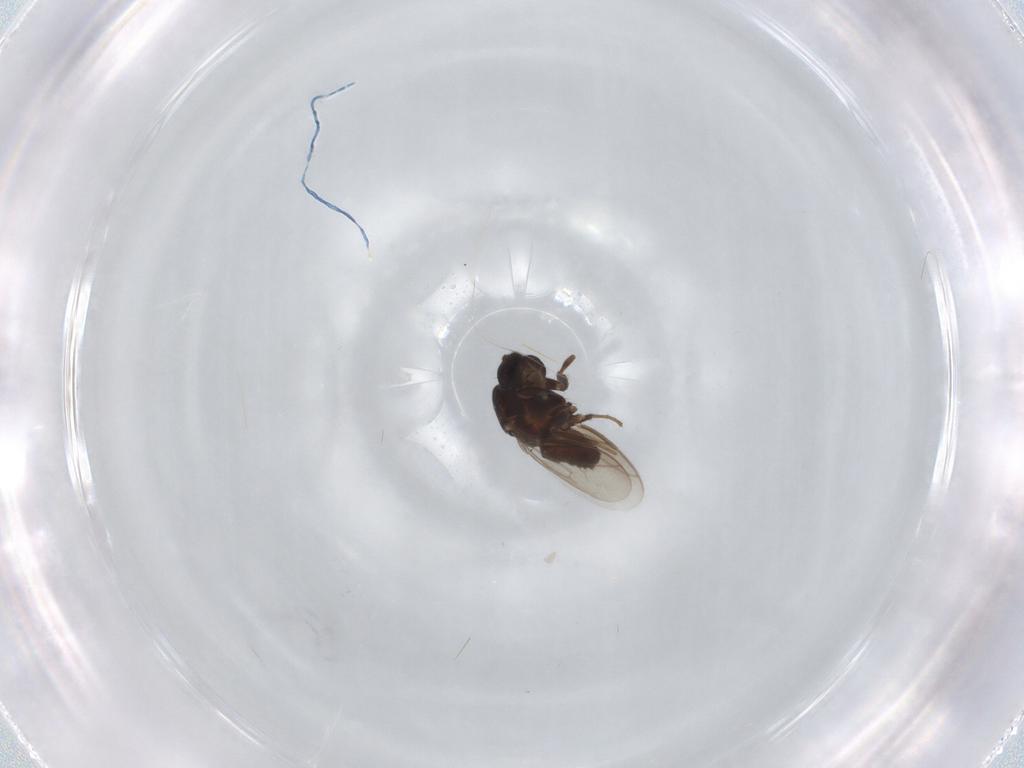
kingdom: Animalia
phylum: Arthropoda
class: Insecta
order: Diptera
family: Sphaeroceridae
